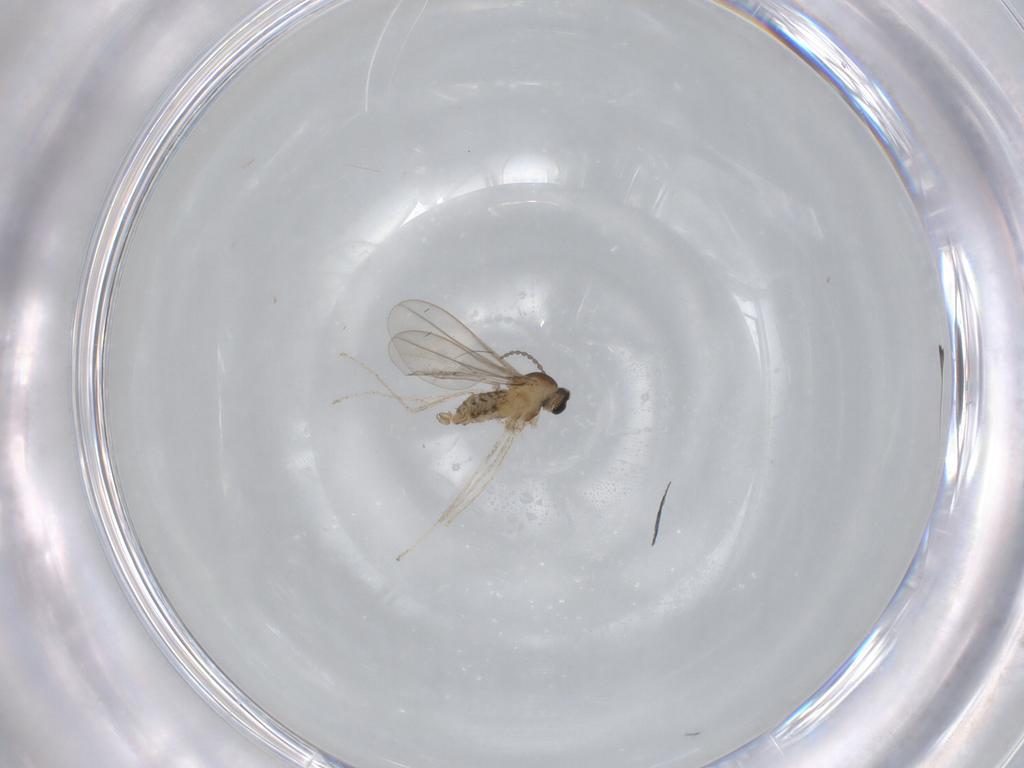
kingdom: Animalia
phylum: Arthropoda
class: Insecta
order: Diptera
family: Cecidomyiidae
